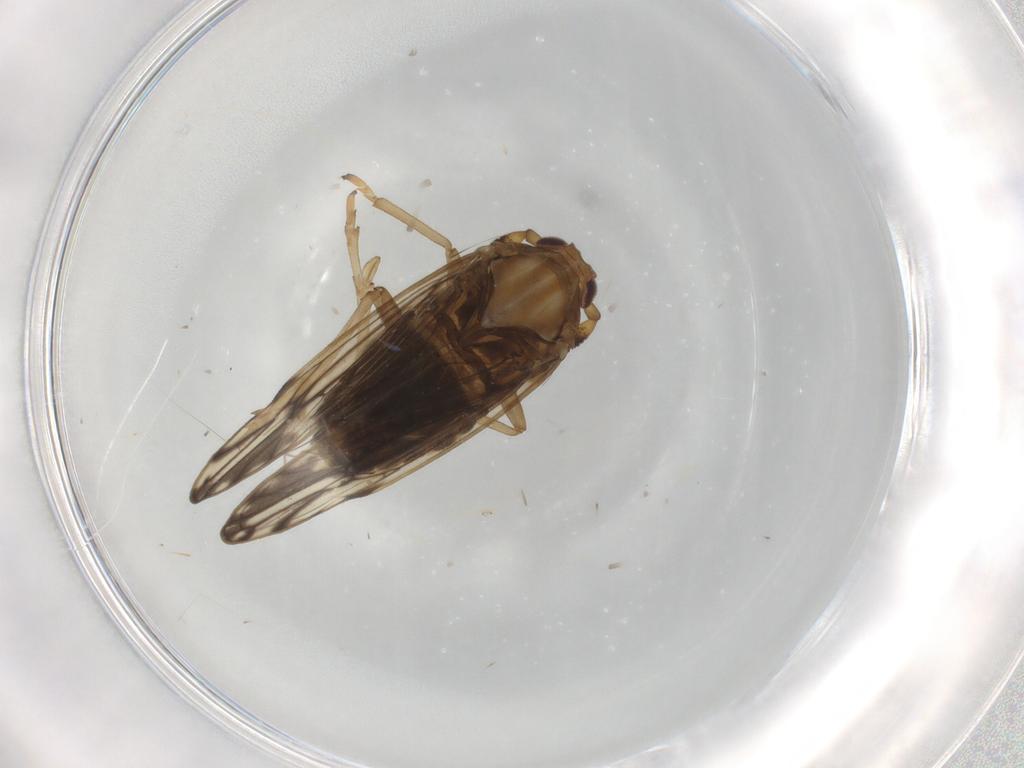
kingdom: Animalia
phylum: Arthropoda
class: Insecta
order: Hemiptera
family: Delphacidae
